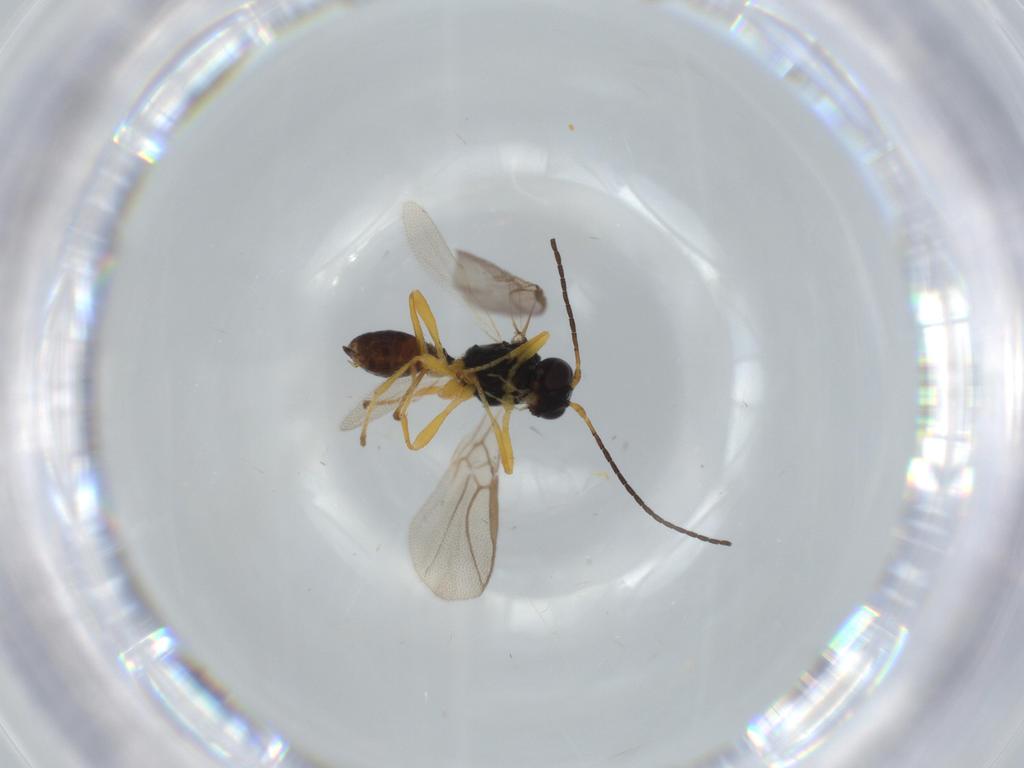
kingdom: Animalia
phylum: Arthropoda
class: Insecta
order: Hymenoptera
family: Braconidae
